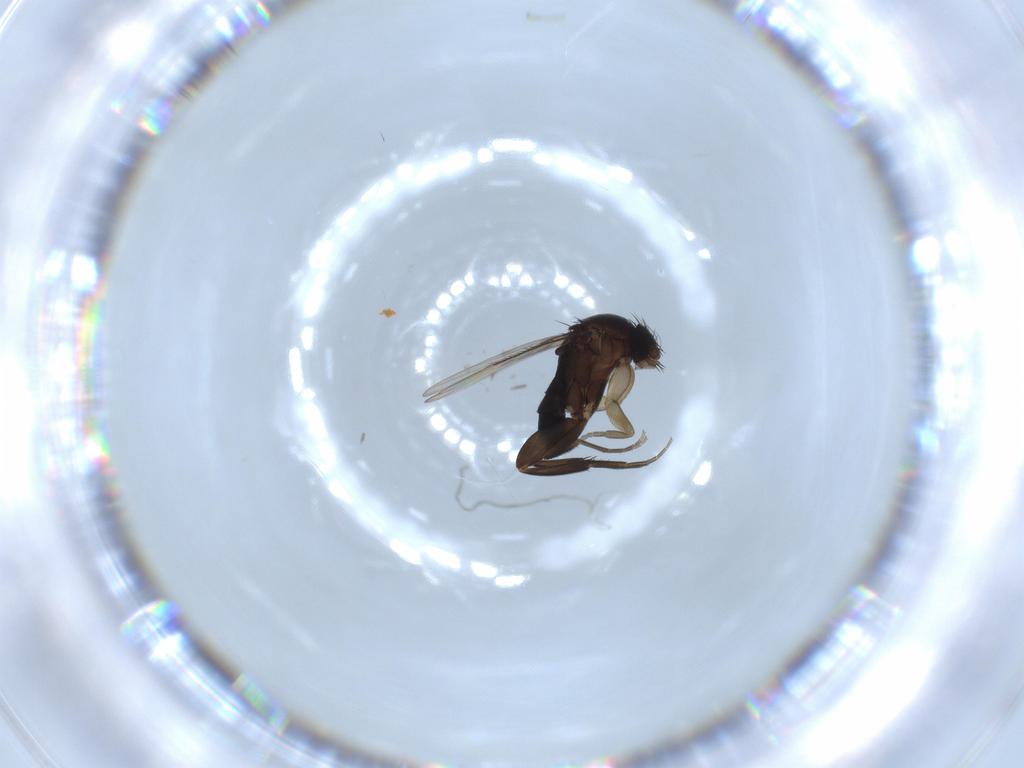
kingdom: Animalia
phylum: Arthropoda
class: Insecta
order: Diptera
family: Phoridae
